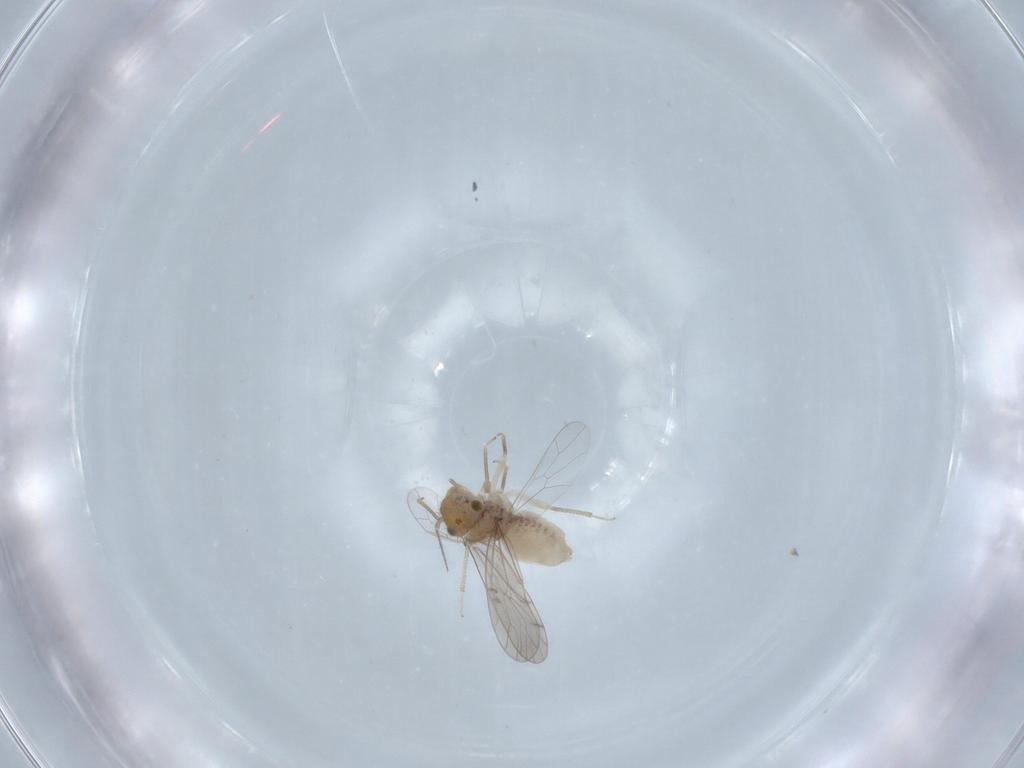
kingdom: Animalia
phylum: Arthropoda
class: Insecta
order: Psocodea
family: Ectopsocidae
